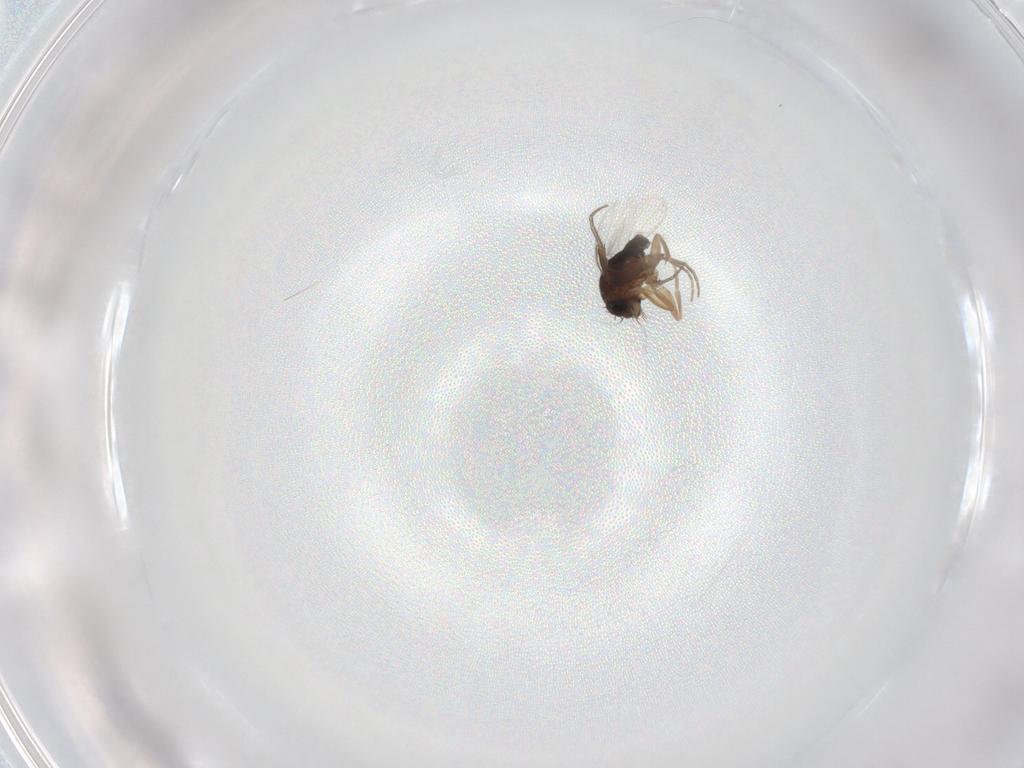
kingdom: Animalia
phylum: Arthropoda
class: Insecta
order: Diptera
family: Phoridae
